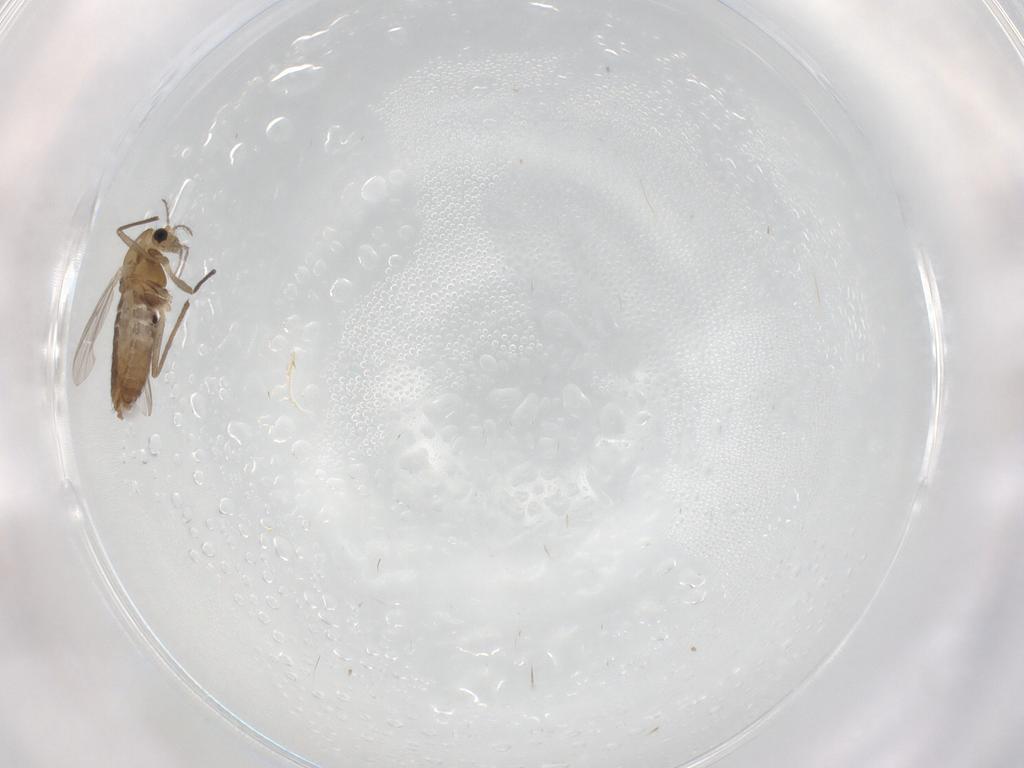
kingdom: Animalia
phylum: Arthropoda
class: Insecta
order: Diptera
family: Chironomidae
